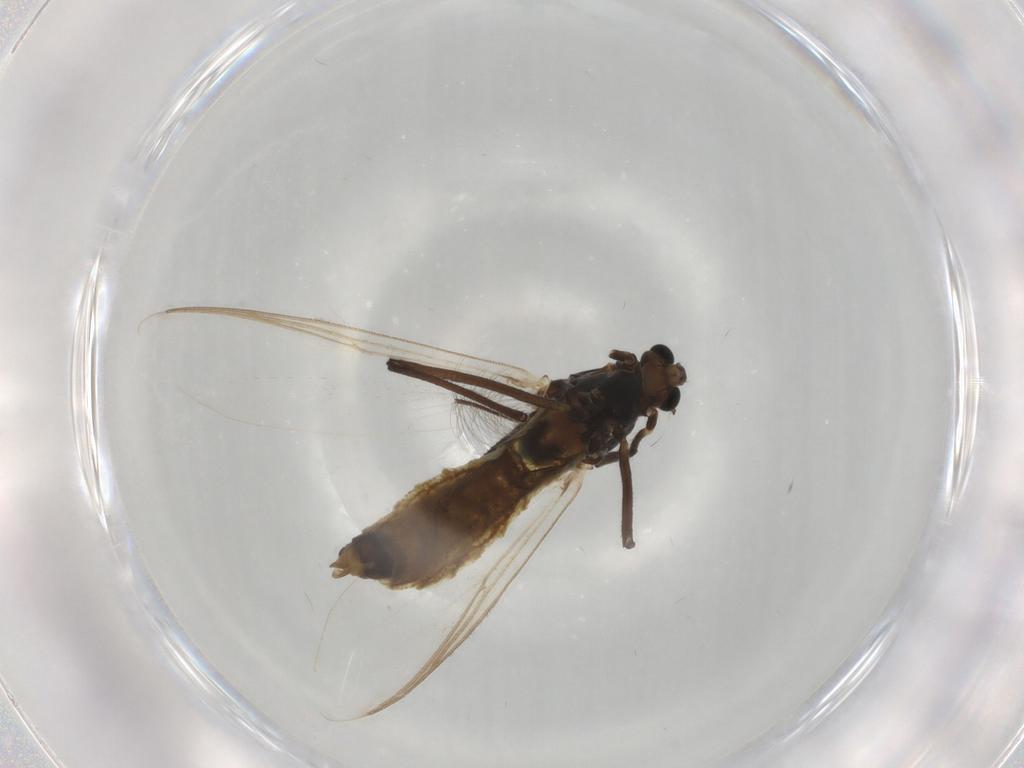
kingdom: Animalia
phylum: Arthropoda
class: Insecta
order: Diptera
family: Chironomidae
